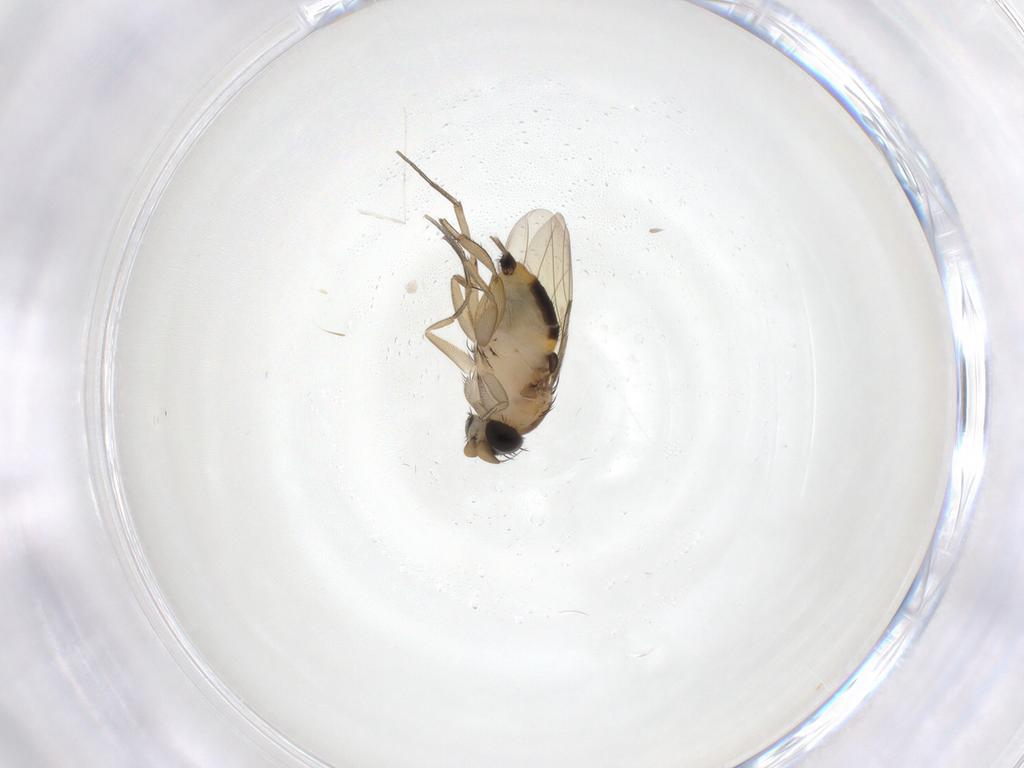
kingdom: Animalia
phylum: Arthropoda
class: Insecta
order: Diptera
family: Phoridae
